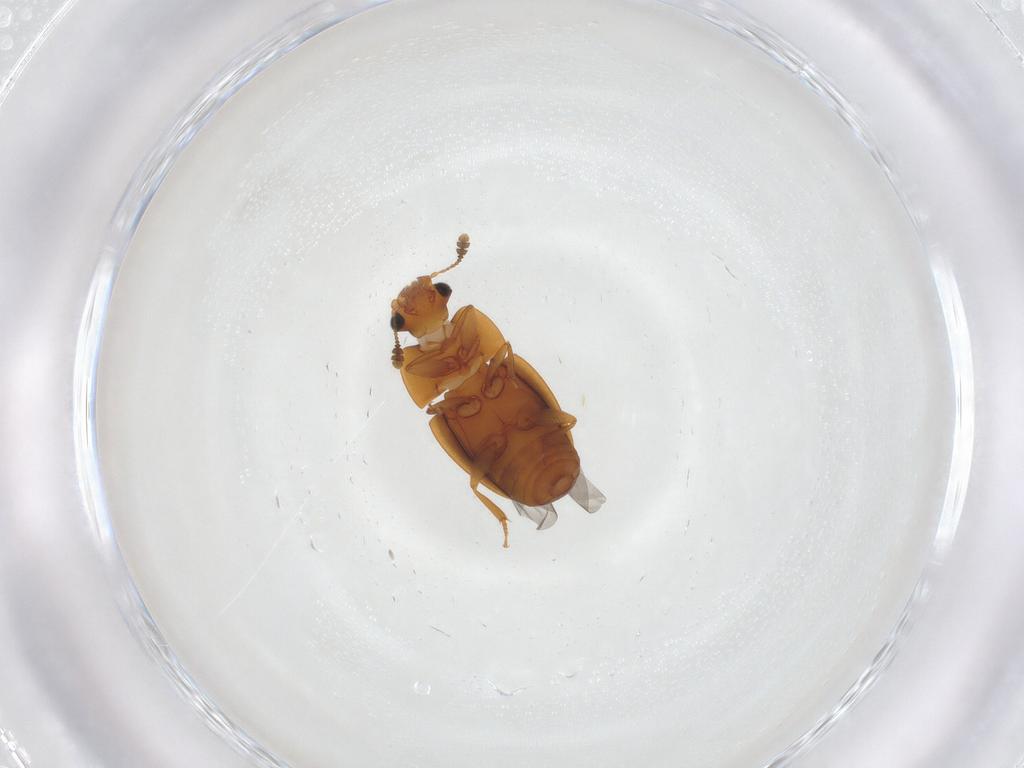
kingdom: Animalia
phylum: Arthropoda
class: Insecta
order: Coleoptera
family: Nitidulidae
